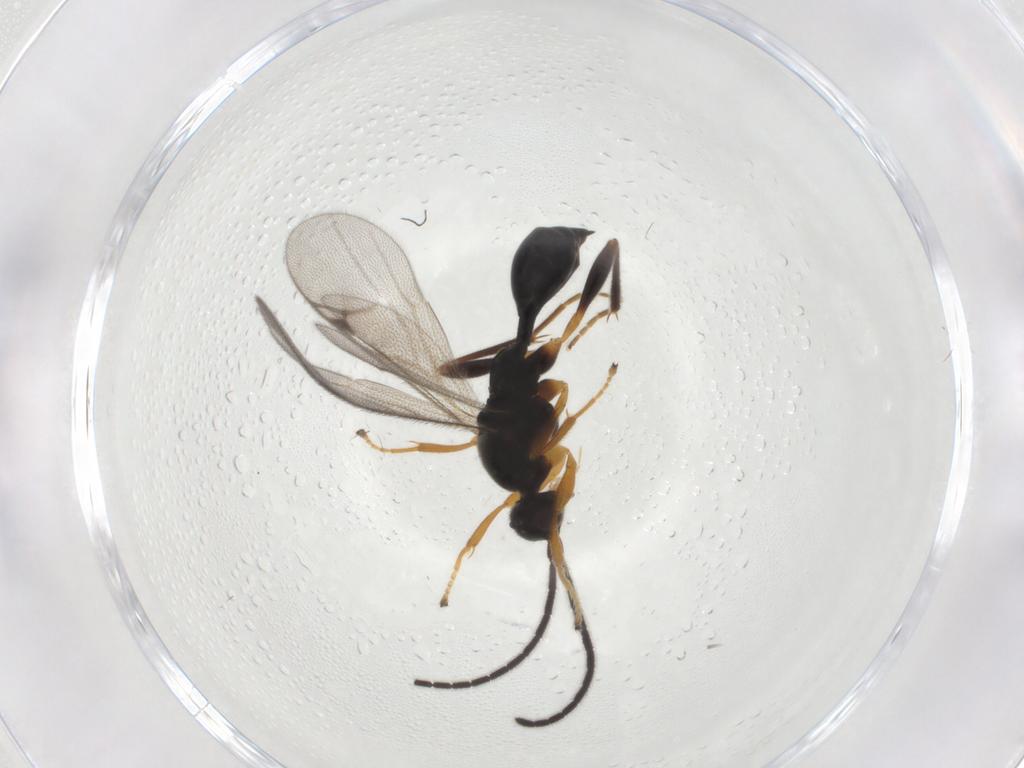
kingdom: Animalia
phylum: Arthropoda
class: Insecta
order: Hymenoptera
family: Proctotrupidae
